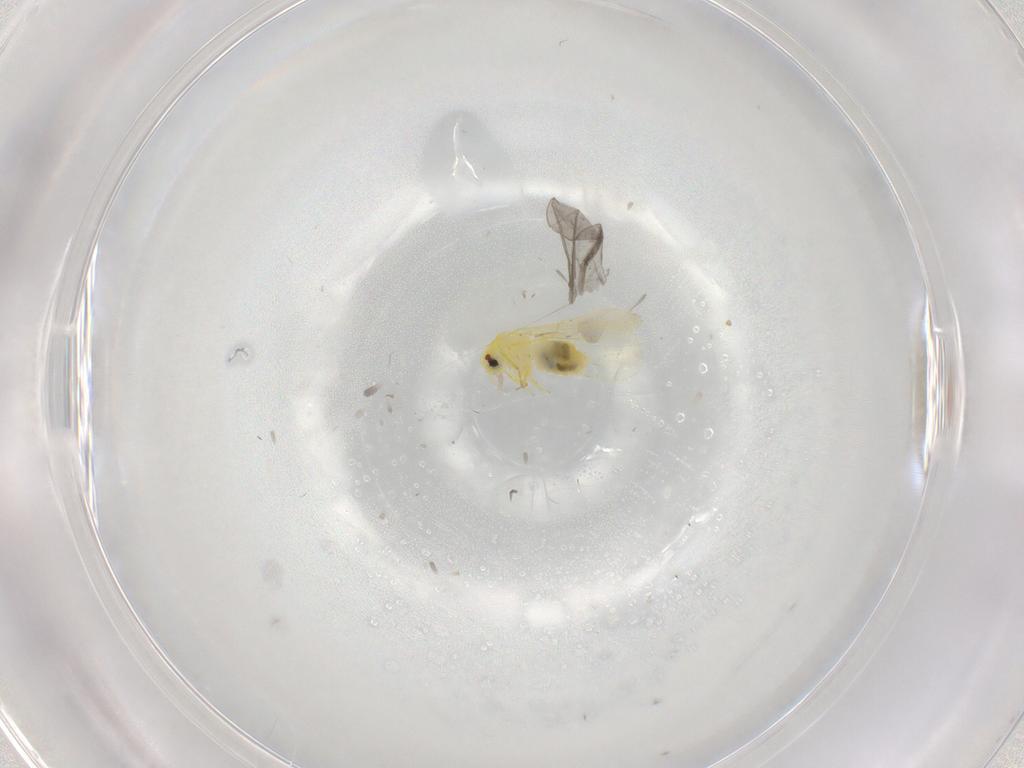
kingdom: Animalia
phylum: Arthropoda
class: Insecta
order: Hemiptera
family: Aleyrodidae
